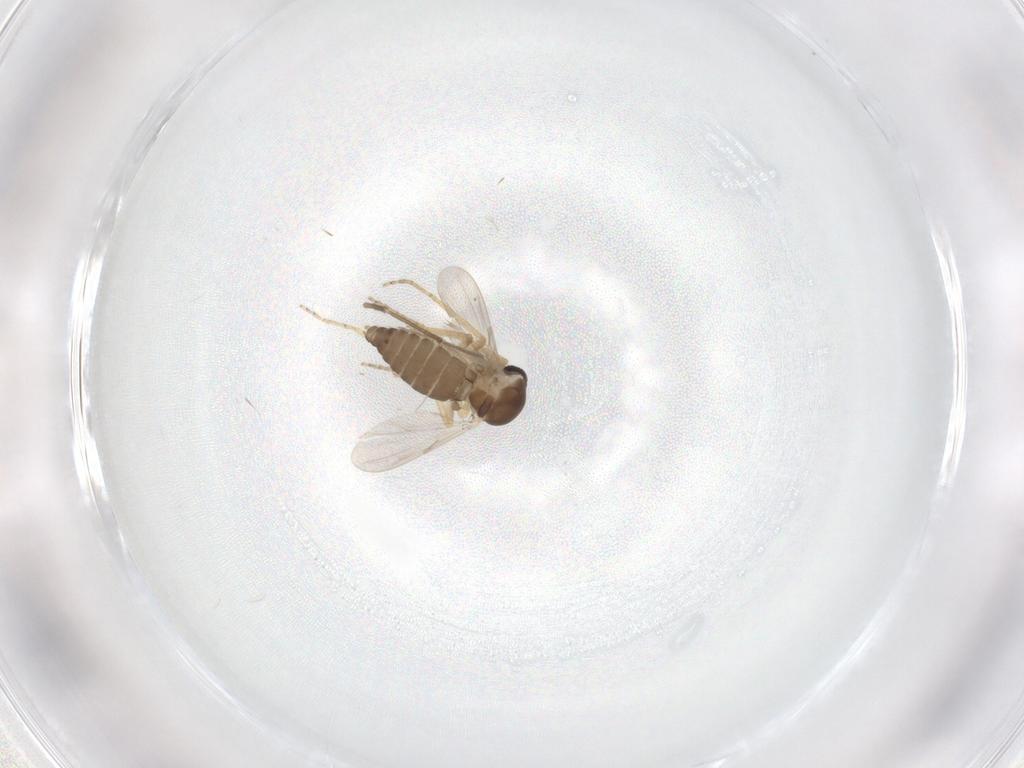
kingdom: Animalia
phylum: Arthropoda
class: Insecta
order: Diptera
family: Ceratopogonidae
